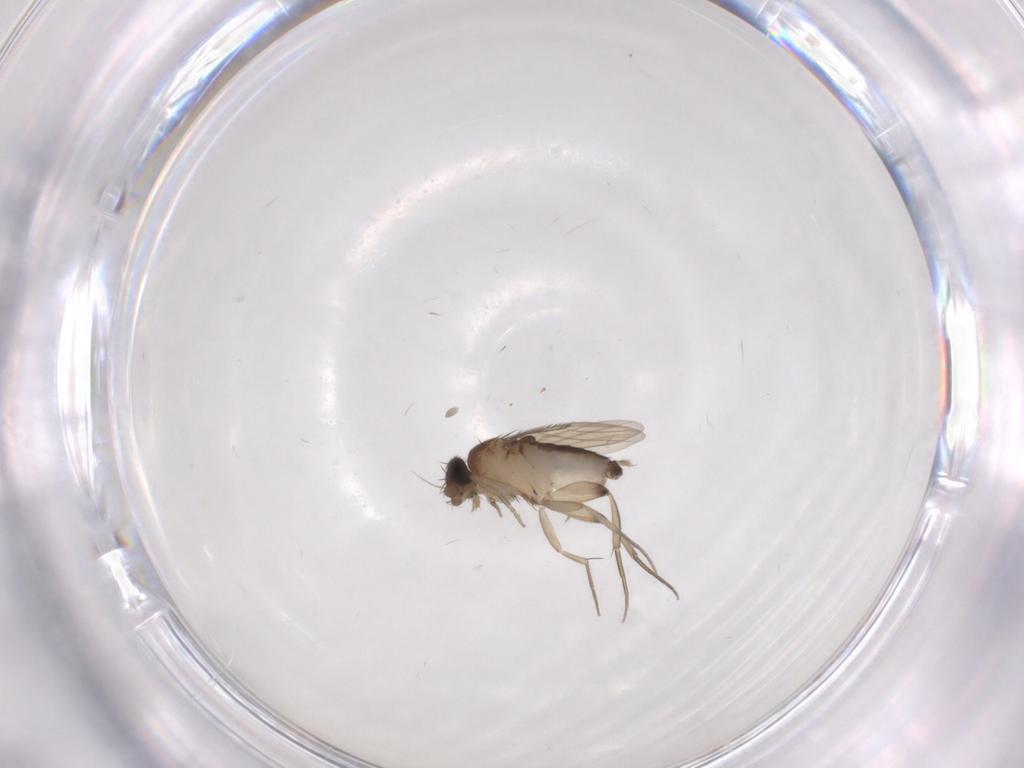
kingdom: Animalia
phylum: Arthropoda
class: Insecta
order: Diptera
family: Phoridae
